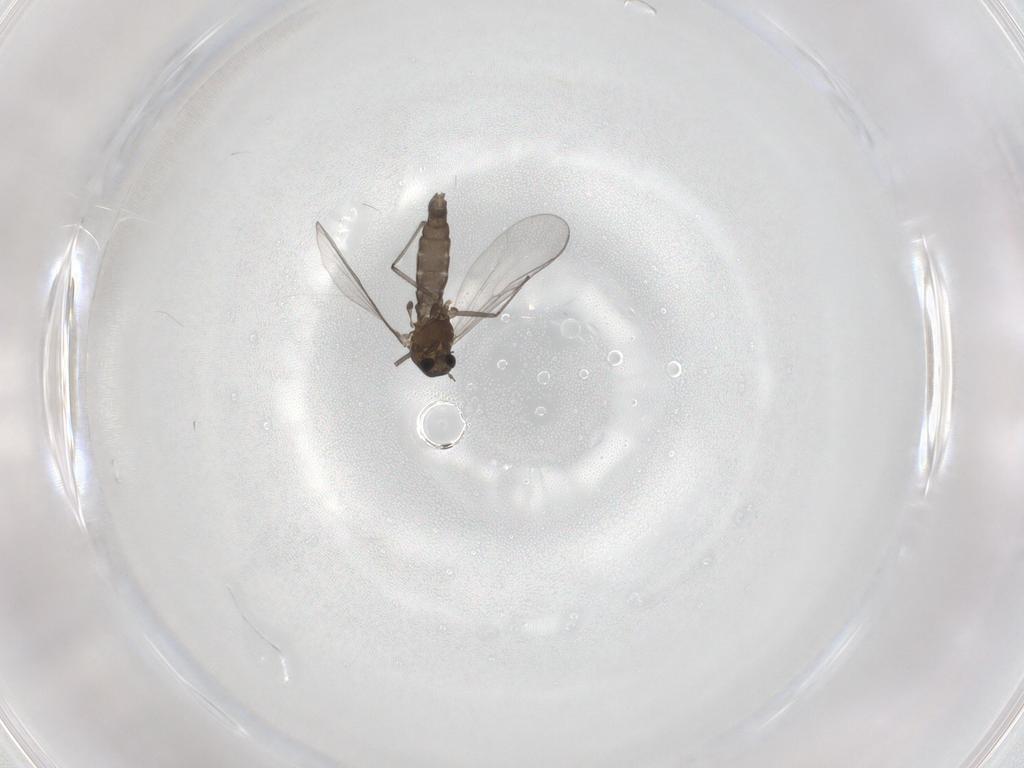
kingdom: Animalia
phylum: Arthropoda
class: Insecta
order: Diptera
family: Chironomidae
